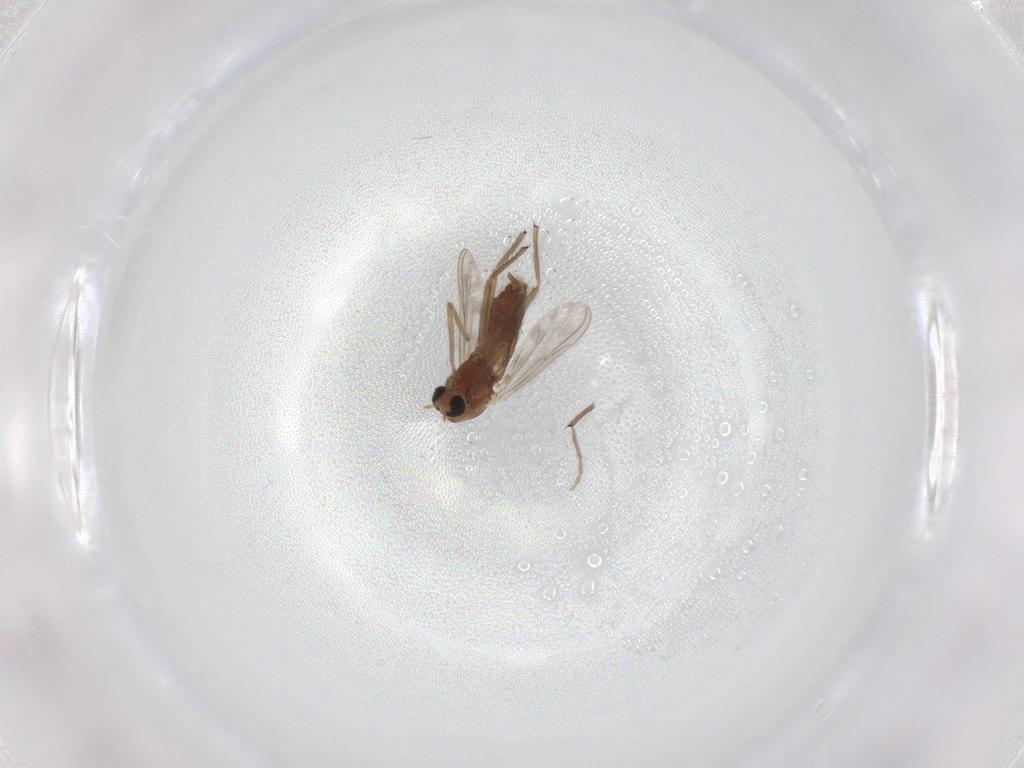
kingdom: Animalia
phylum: Arthropoda
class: Insecta
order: Diptera
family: Chironomidae
